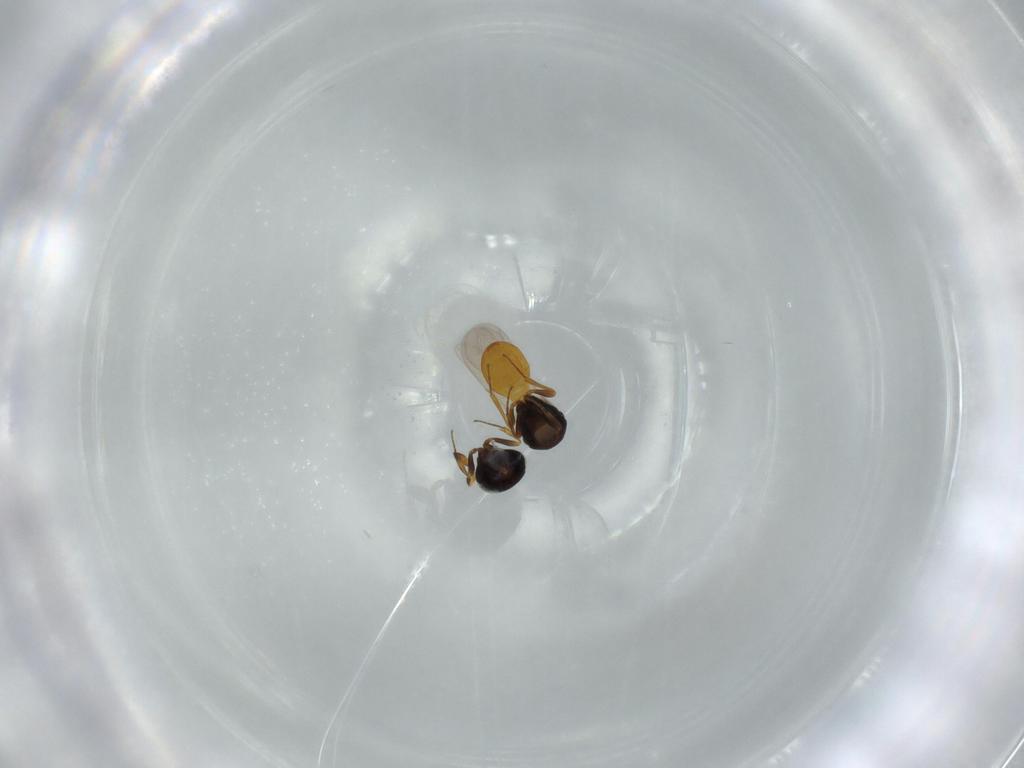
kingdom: Animalia
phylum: Arthropoda
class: Insecta
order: Hymenoptera
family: Scelionidae
